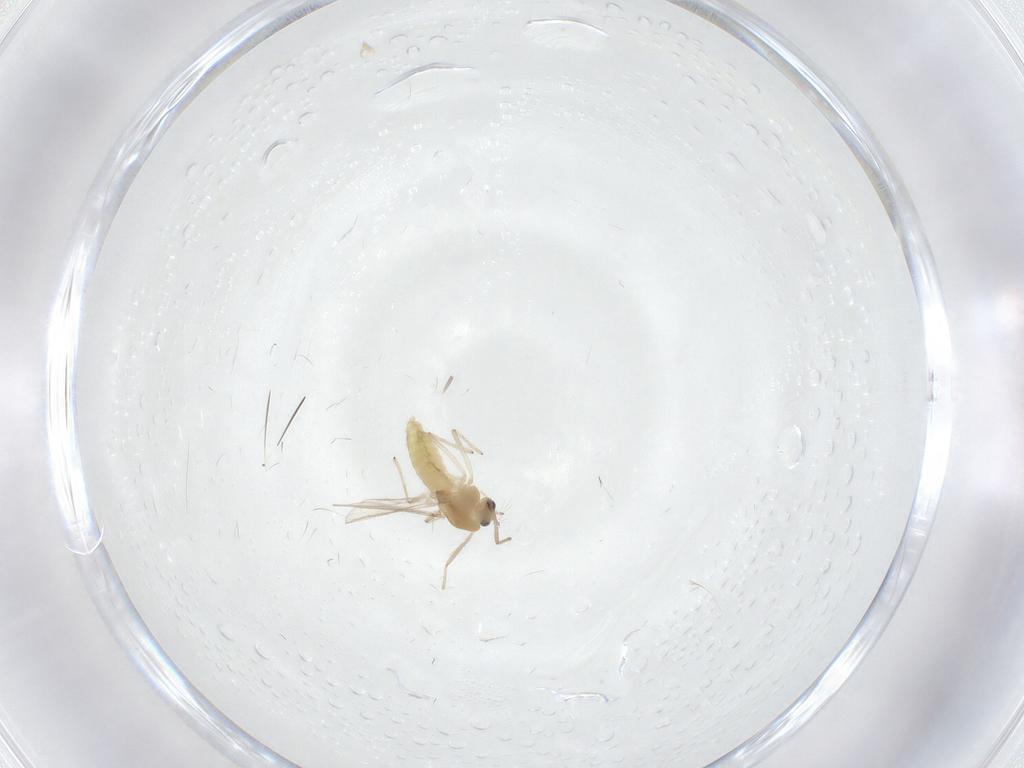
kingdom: Animalia
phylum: Arthropoda
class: Insecta
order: Diptera
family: Chironomidae
